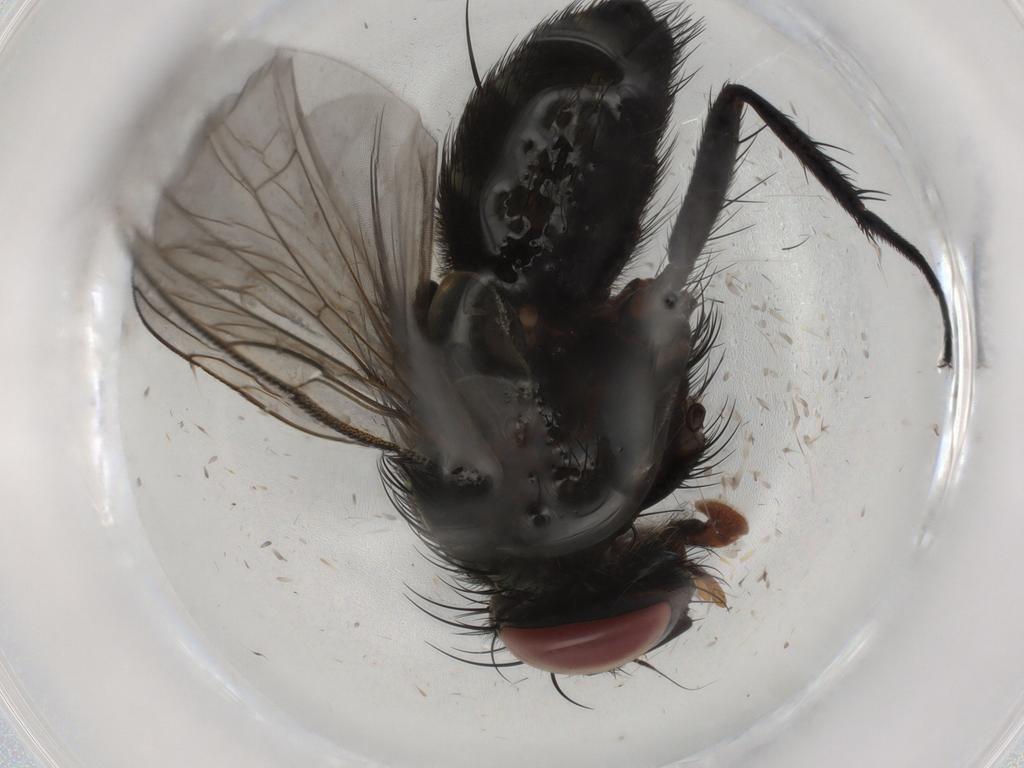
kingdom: Animalia
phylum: Arthropoda
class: Insecta
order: Diptera
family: Tachinidae
